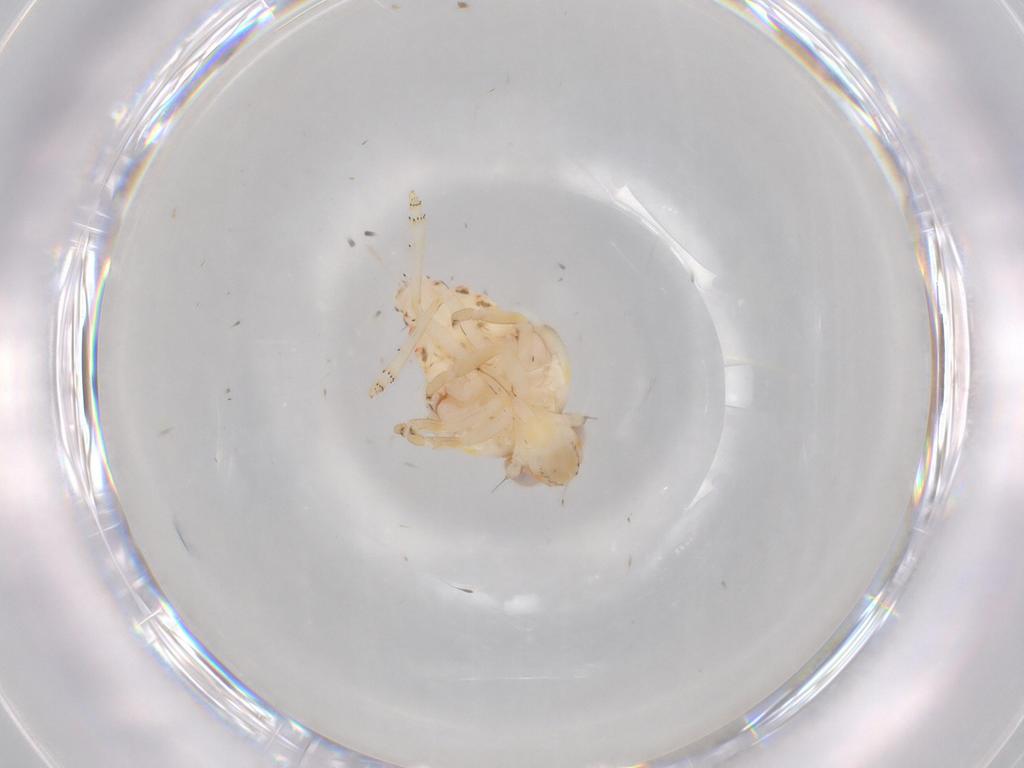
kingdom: Animalia
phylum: Arthropoda
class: Insecta
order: Hemiptera
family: Nogodinidae
